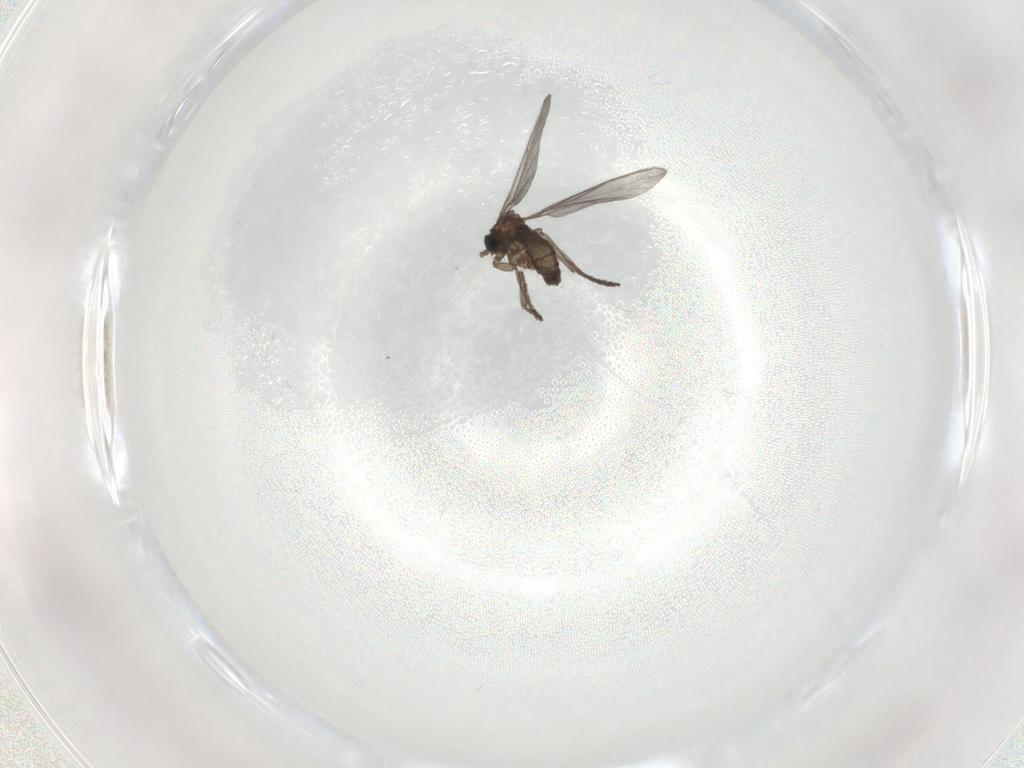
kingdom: Animalia
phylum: Arthropoda
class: Insecta
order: Diptera
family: Sciaridae
